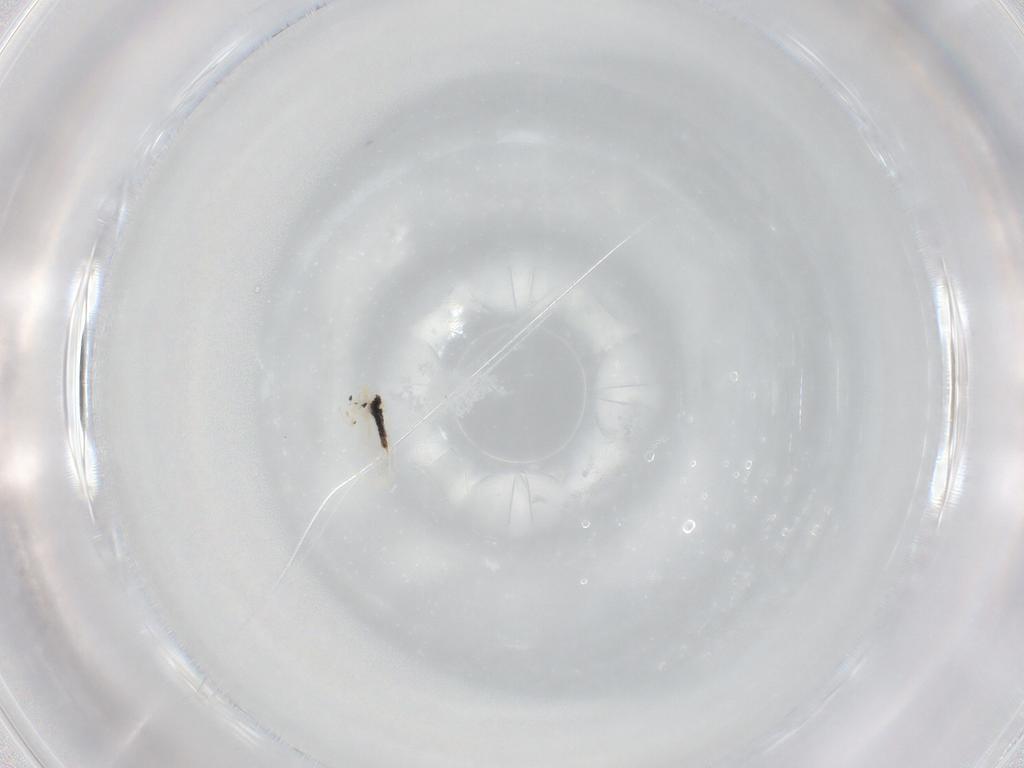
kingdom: Animalia
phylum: Arthropoda
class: Collembola
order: Entomobryomorpha
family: Entomobryidae
